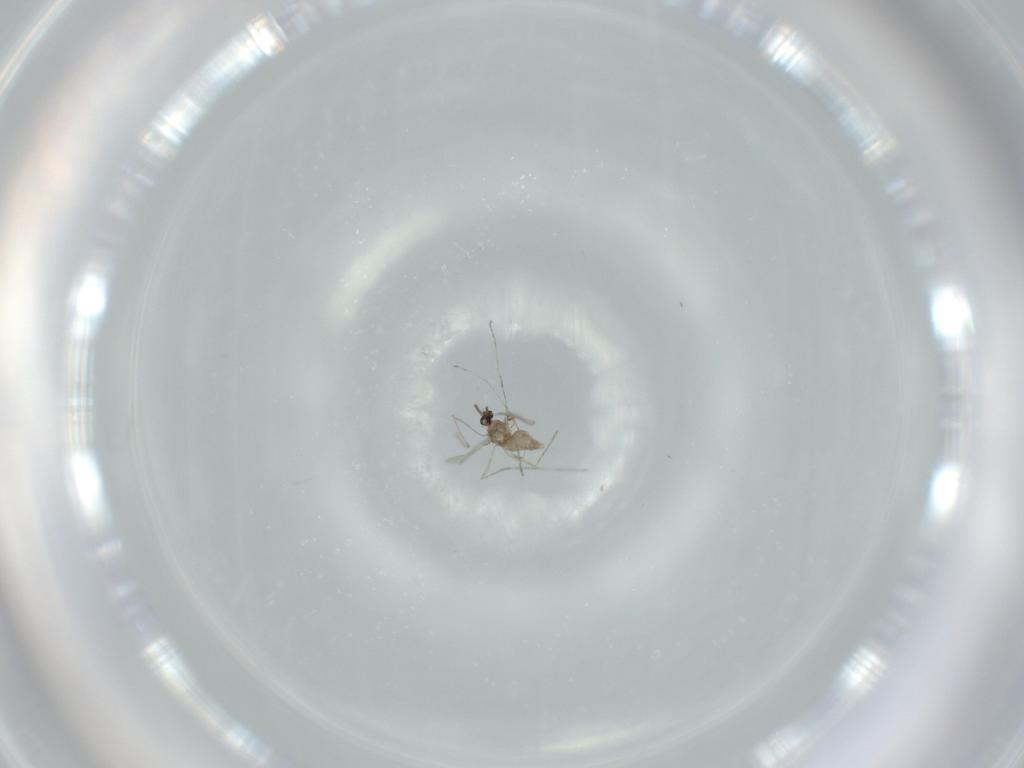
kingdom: Animalia
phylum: Arthropoda
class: Insecta
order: Diptera
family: Cecidomyiidae
